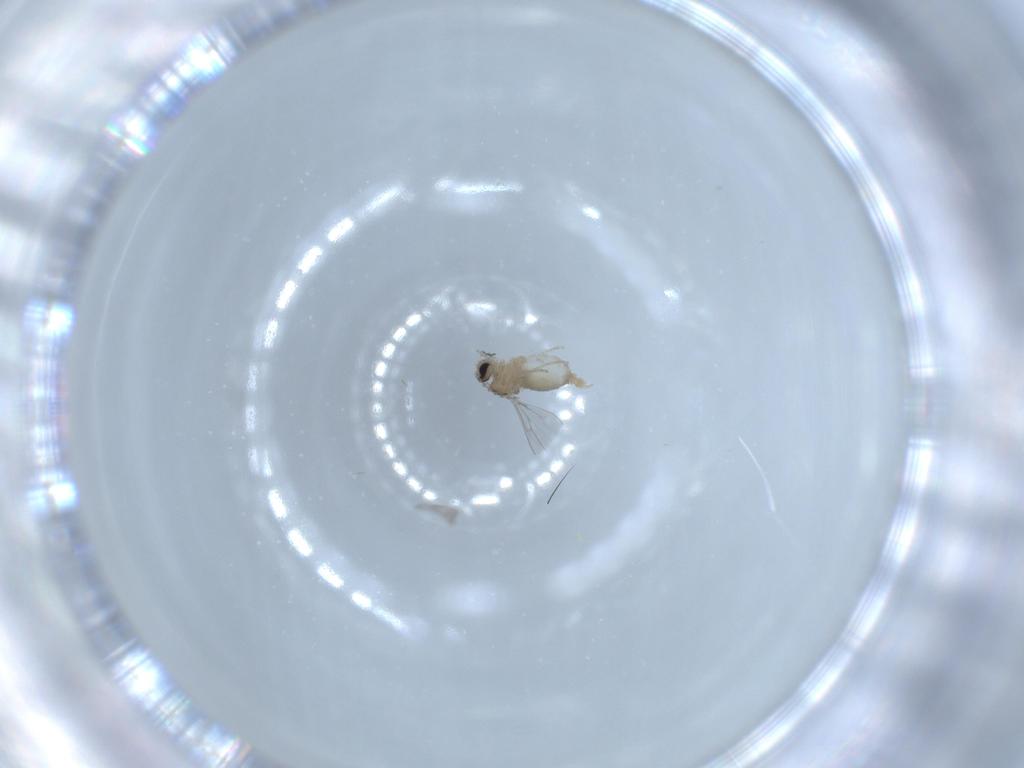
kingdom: Animalia
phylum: Arthropoda
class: Insecta
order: Diptera
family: Cecidomyiidae
